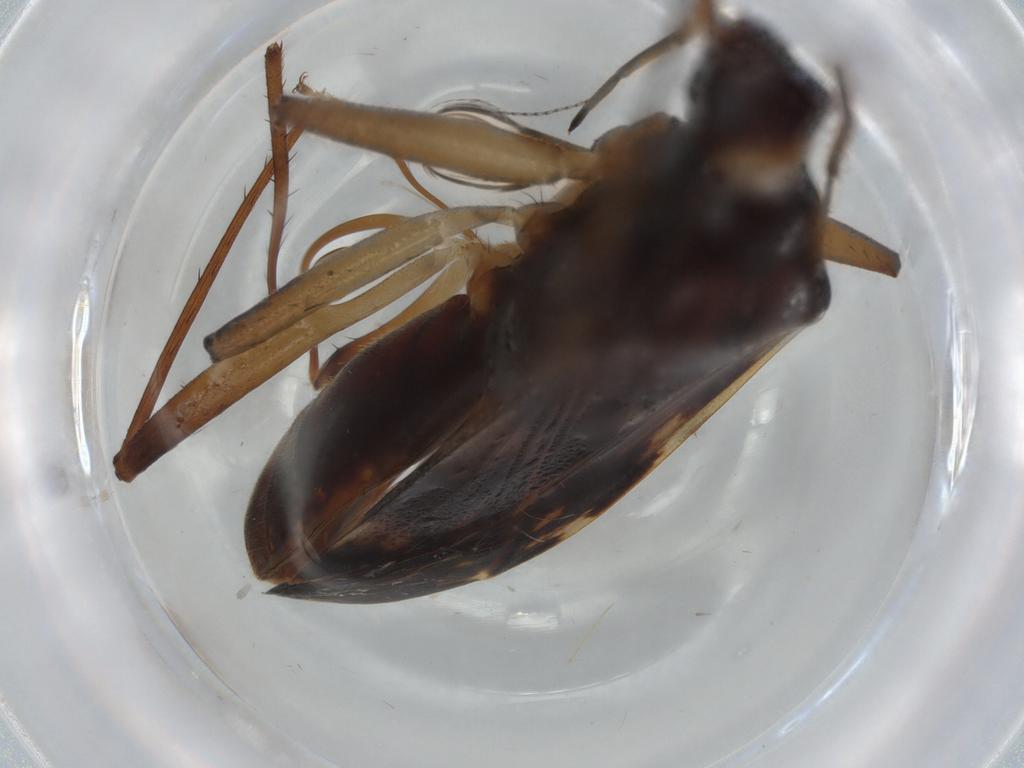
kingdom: Animalia
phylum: Arthropoda
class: Insecta
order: Hemiptera
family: Rhyparochromidae
